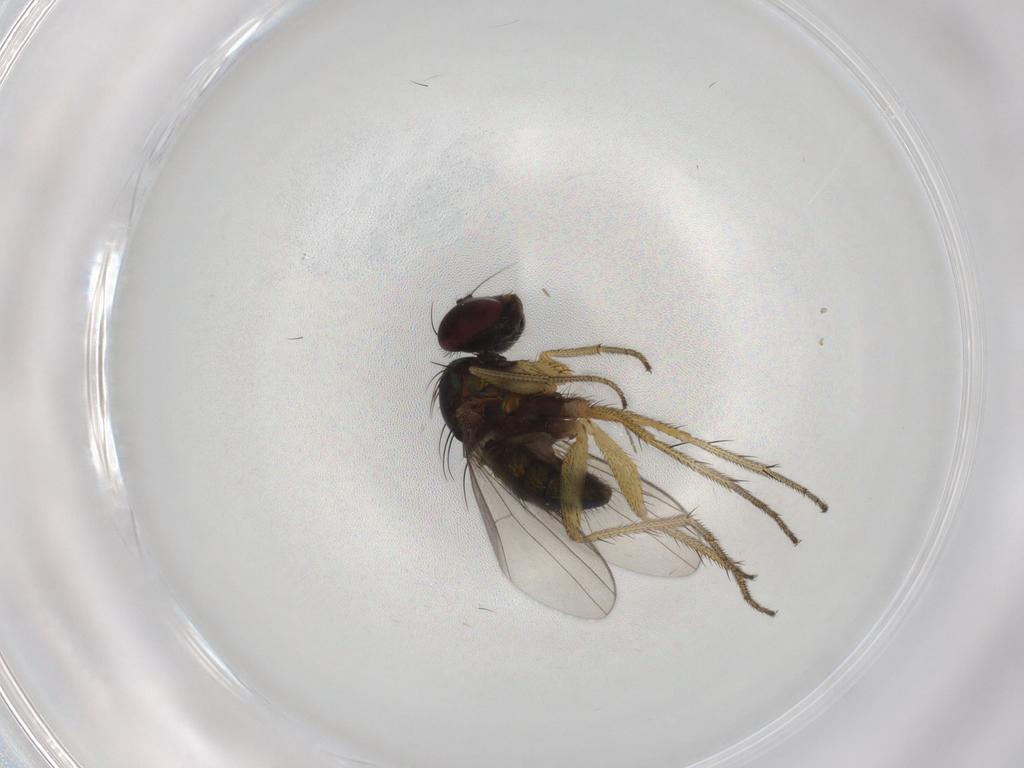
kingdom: Animalia
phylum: Arthropoda
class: Insecta
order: Diptera
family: Dolichopodidae
